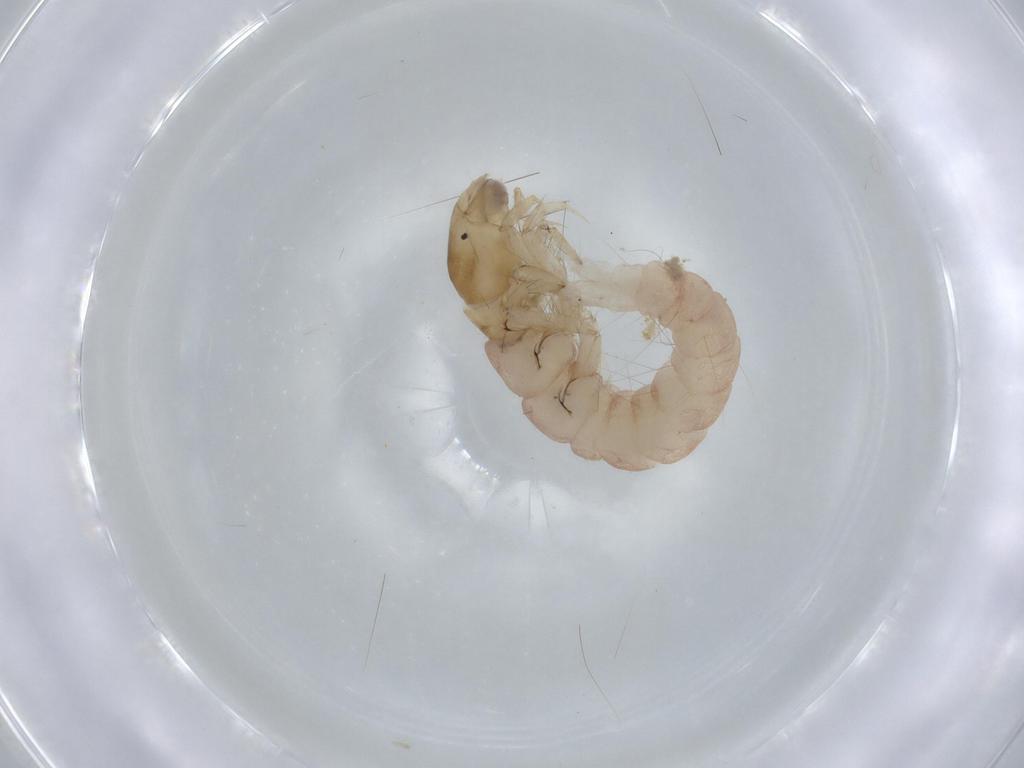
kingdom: Animalia
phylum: Arthropoda
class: Insecta
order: Trichoptera
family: Polycentropodidae
